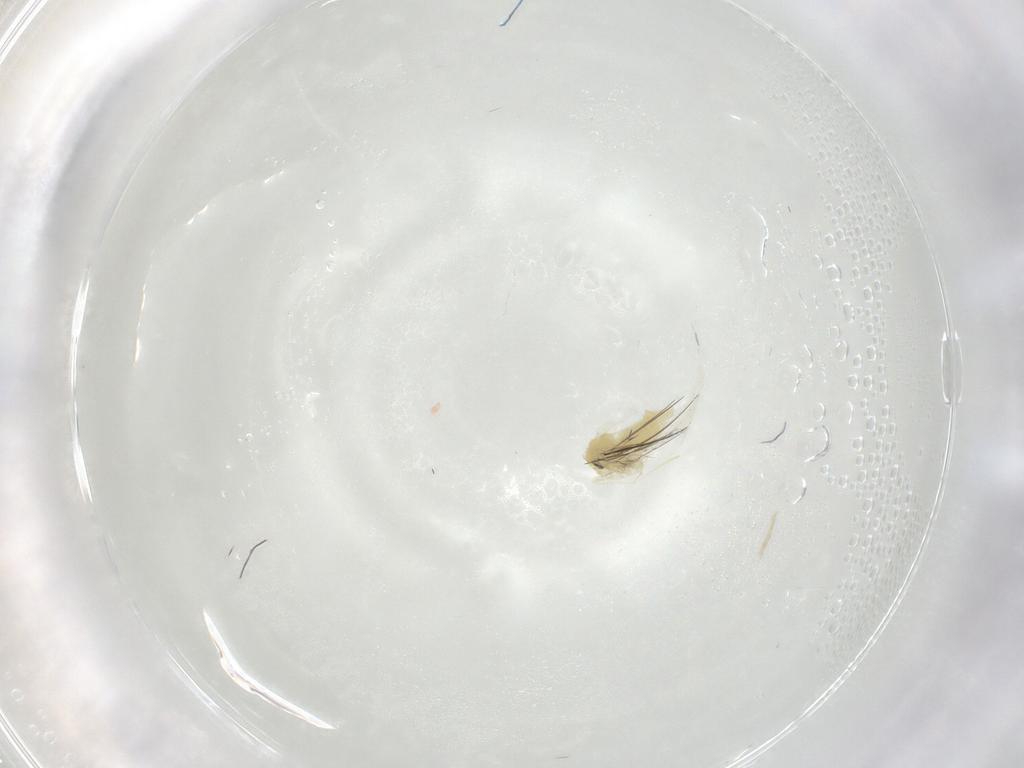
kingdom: Animalia
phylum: Arthropoda
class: Insecta
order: Hemiptera
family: Aleyrodidae
